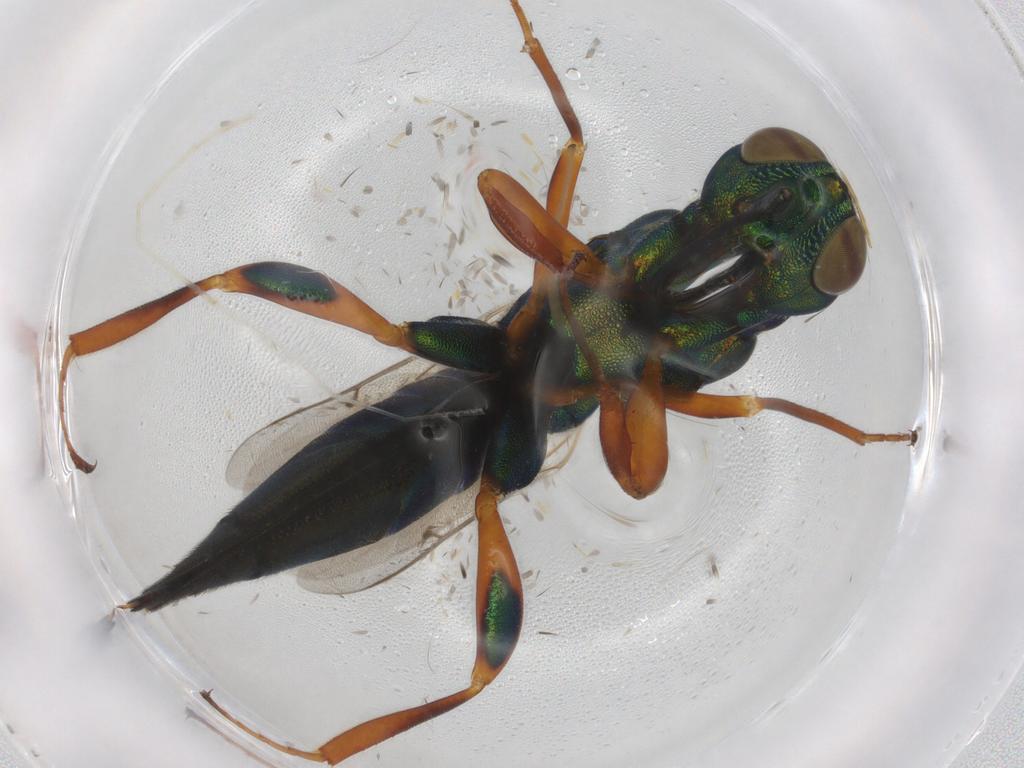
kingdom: Animalia
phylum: Arthropoda
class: Insecta
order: Hymenoptera
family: Lyciscidae
